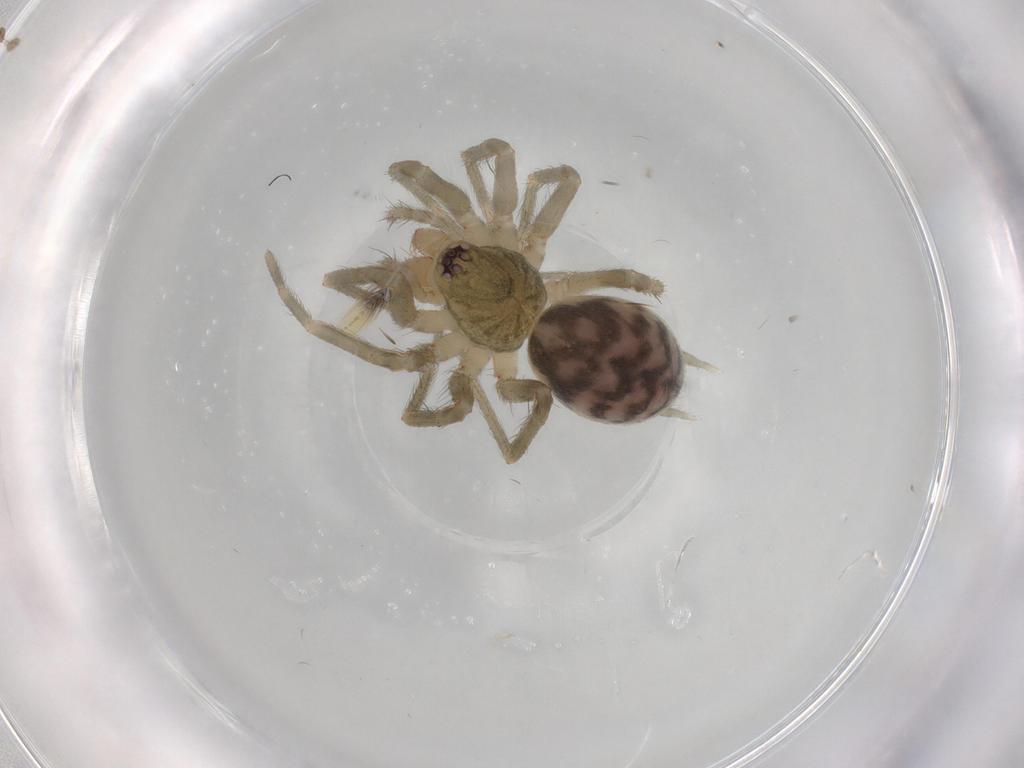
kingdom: Animalia
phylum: Arthropoda
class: Arachnida
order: Araneae
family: Hahniidae
